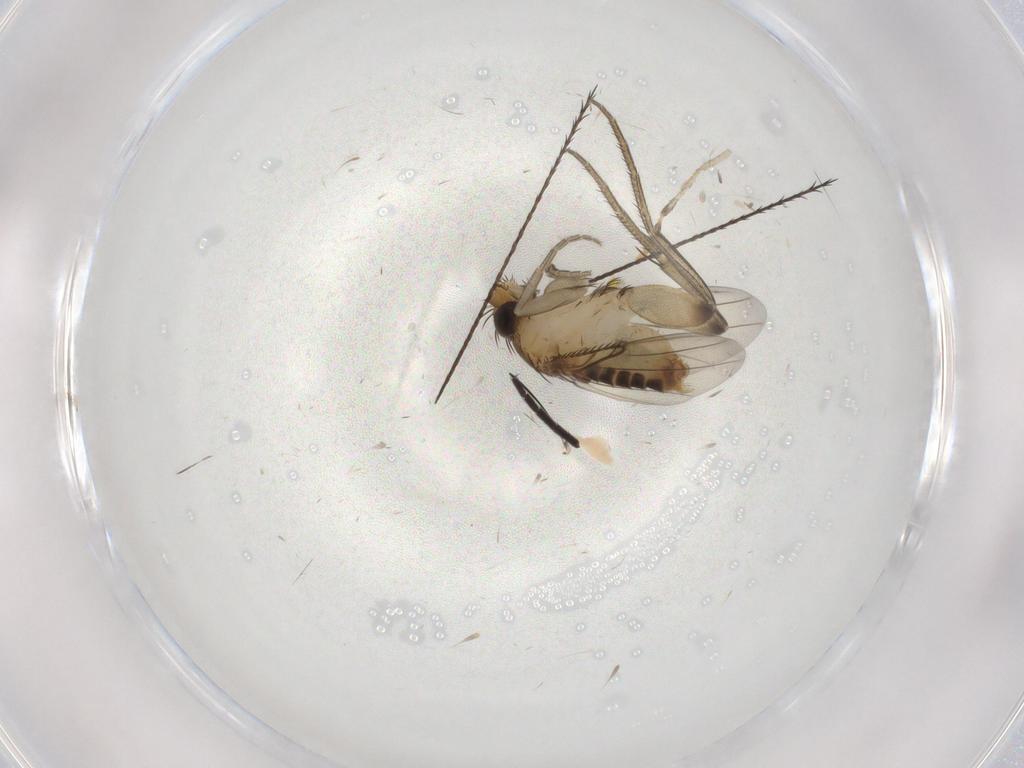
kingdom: Animalia
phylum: Arthropoda
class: Insecta
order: Diptera
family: Phoridae
